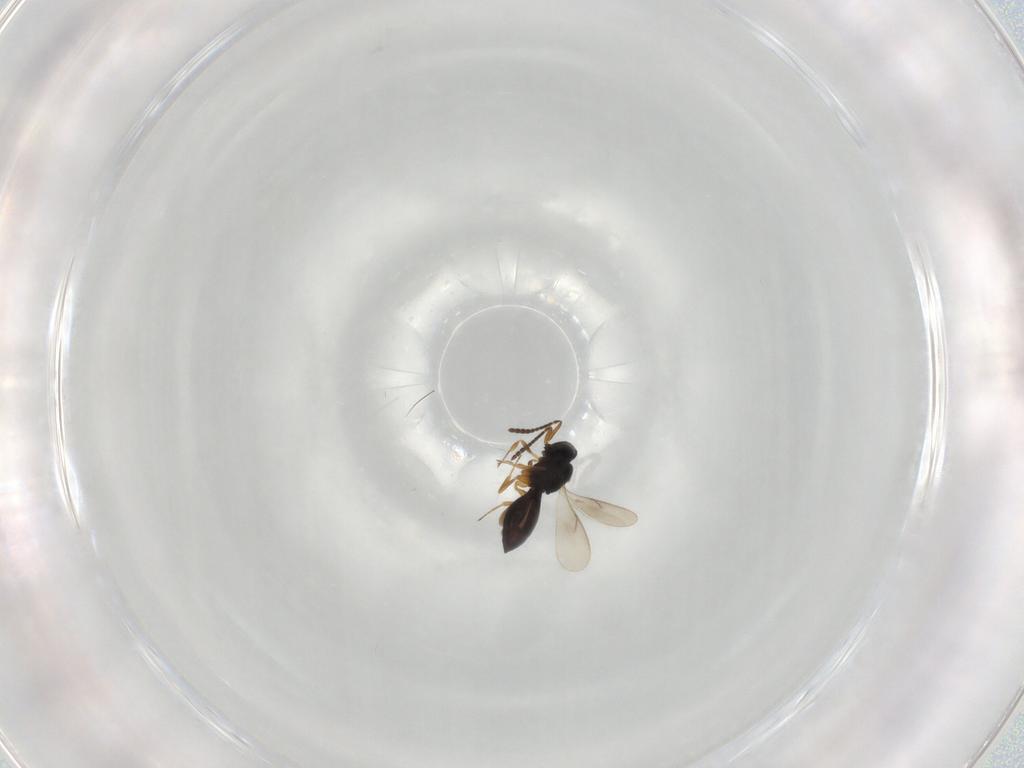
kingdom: Animalia
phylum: Arthropoda
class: Insecta
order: Hymenoptera
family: Scelionidae
